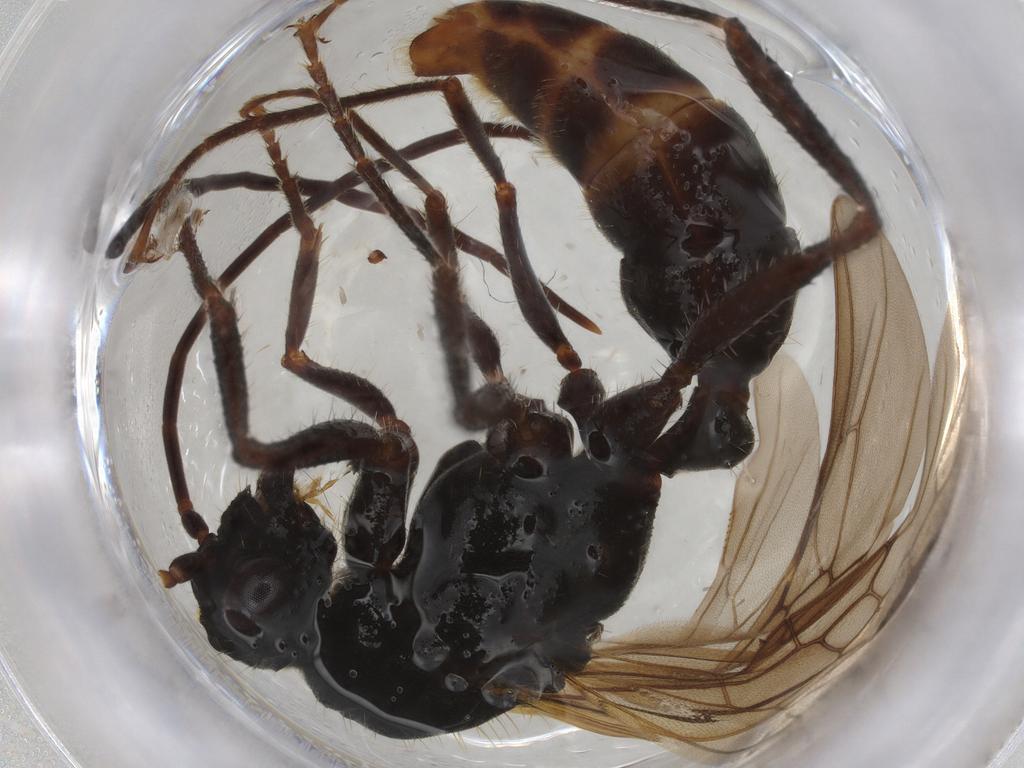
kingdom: Animalia
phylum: Arthropoda
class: Insecta
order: Hymenoptera
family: Formicidae
